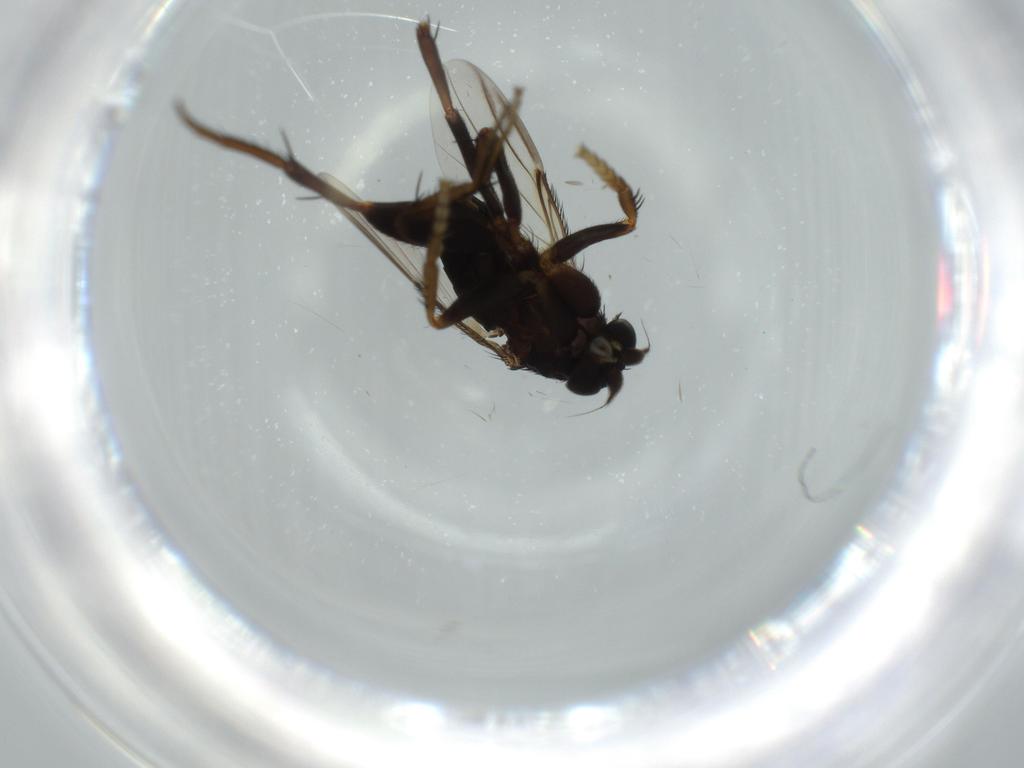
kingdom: Animalia
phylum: Arthropoda
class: Insecta
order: Diptera
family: Phoridae
